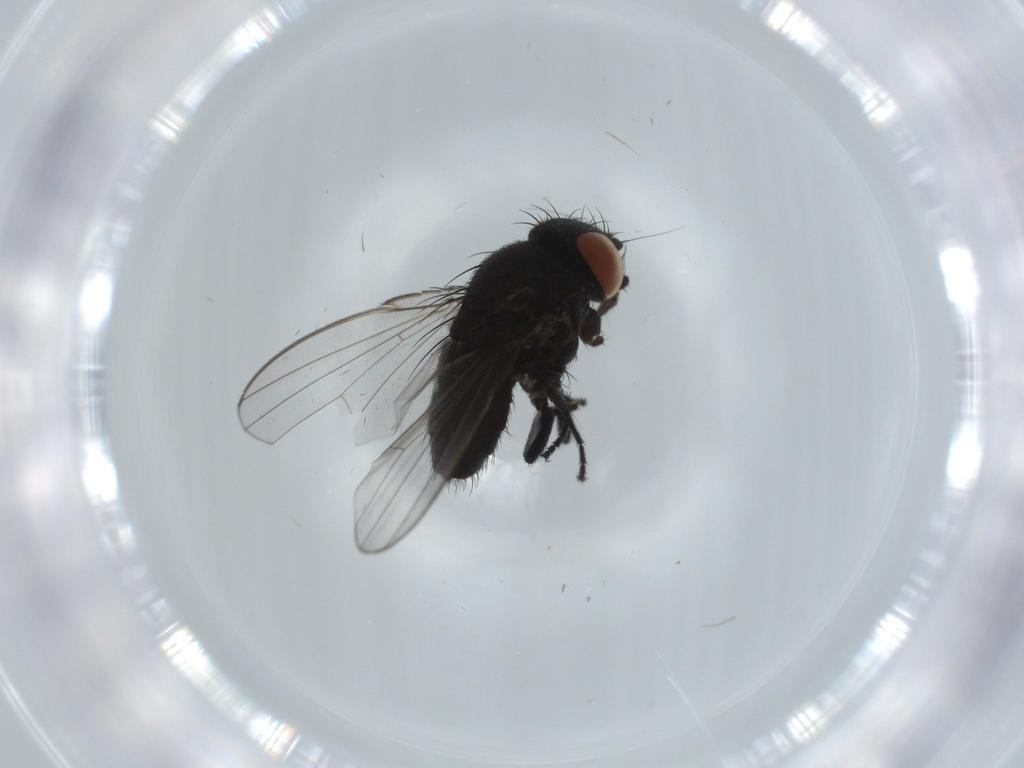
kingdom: Animalia
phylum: Arthropoda
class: Insecta
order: Diptera
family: Milichiidae
